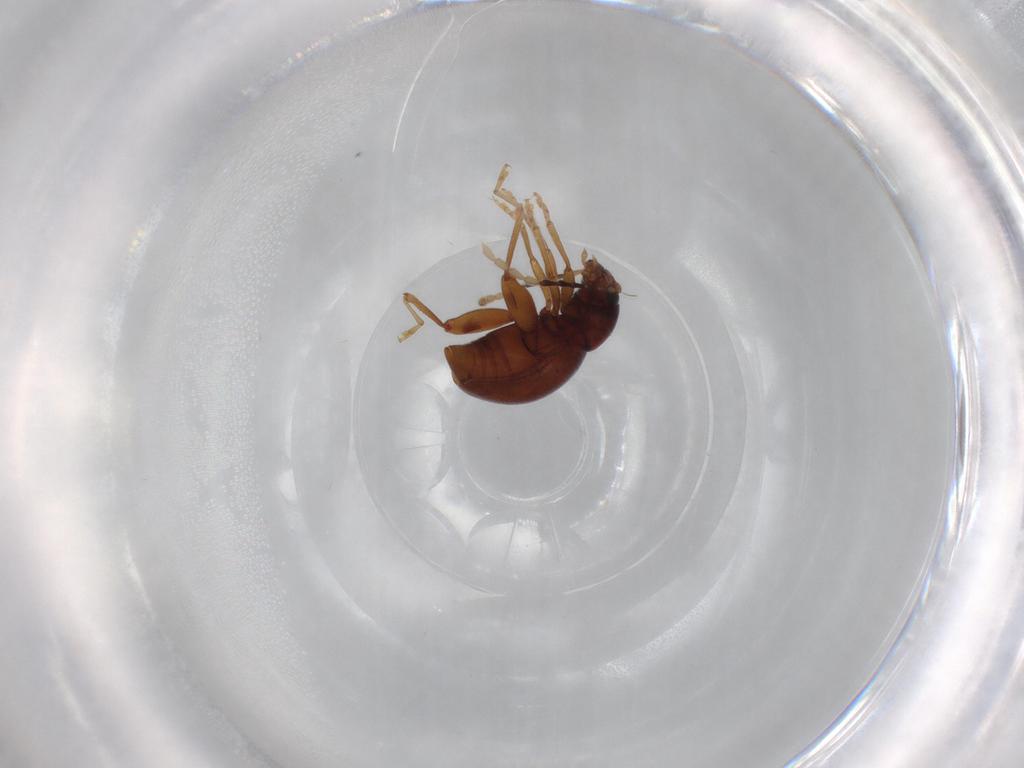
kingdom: Animalia
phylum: Arthropoda
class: Insecta
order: Coleoptera
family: Chrysomelidae
